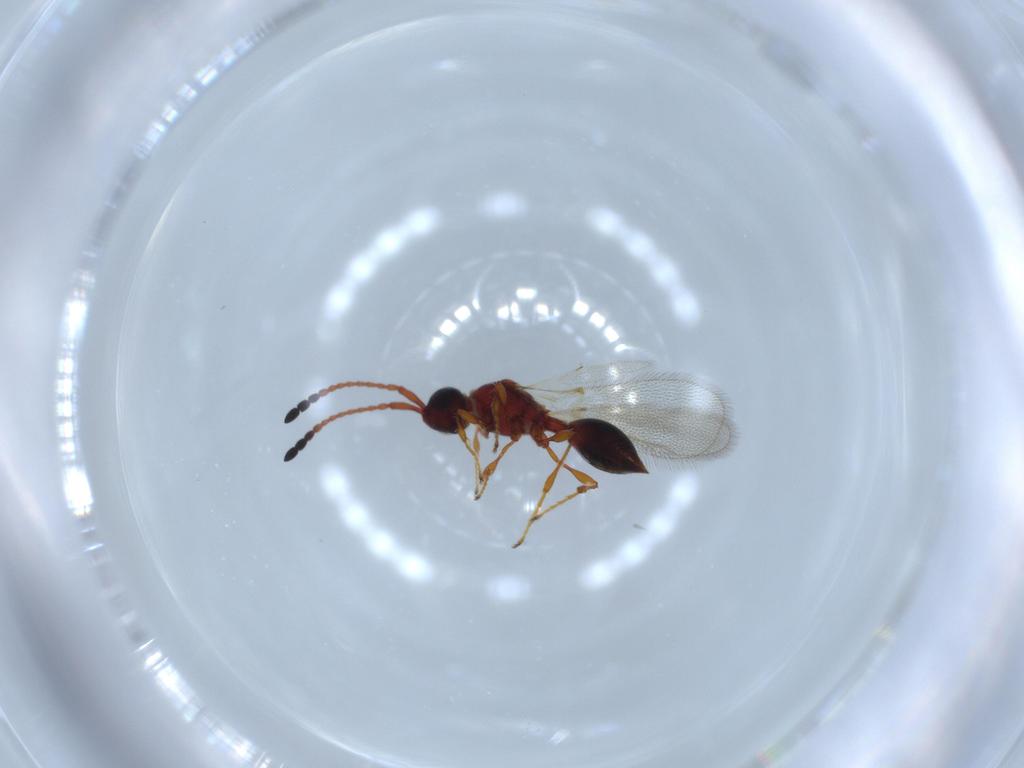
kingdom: Animalia
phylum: Arthropoda
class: Insecta
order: Hymenoptera
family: Diapriidae
